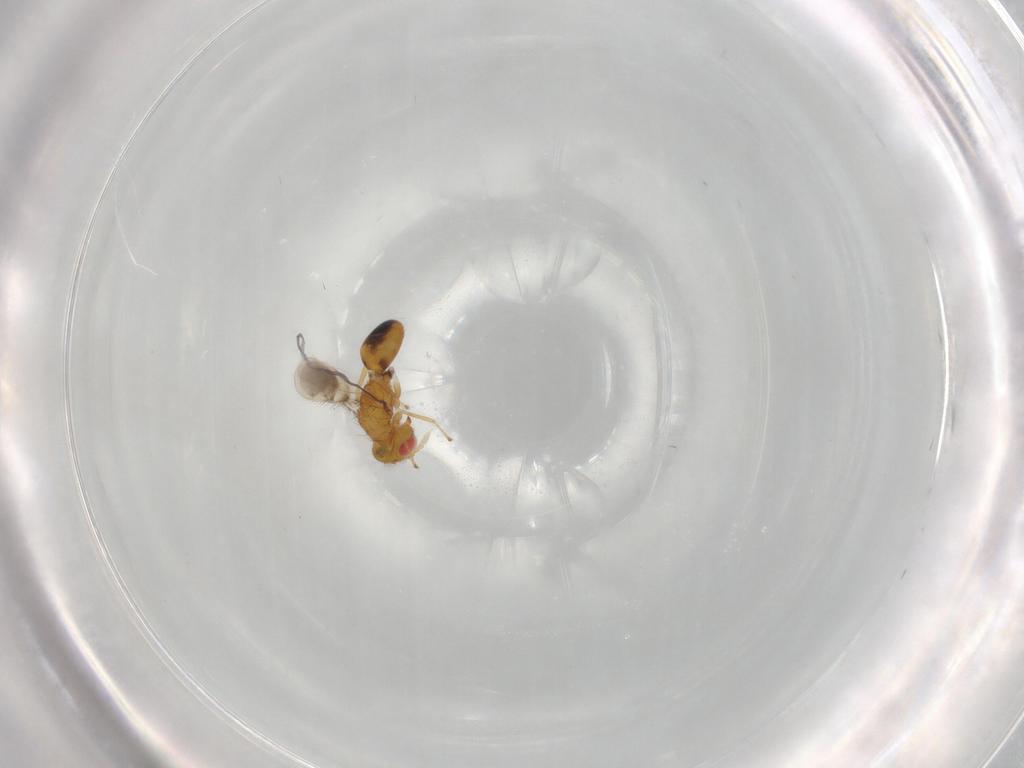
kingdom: Animalia
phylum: Arthropoda
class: Insecta
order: Hymenoptera
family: Eulophidae
